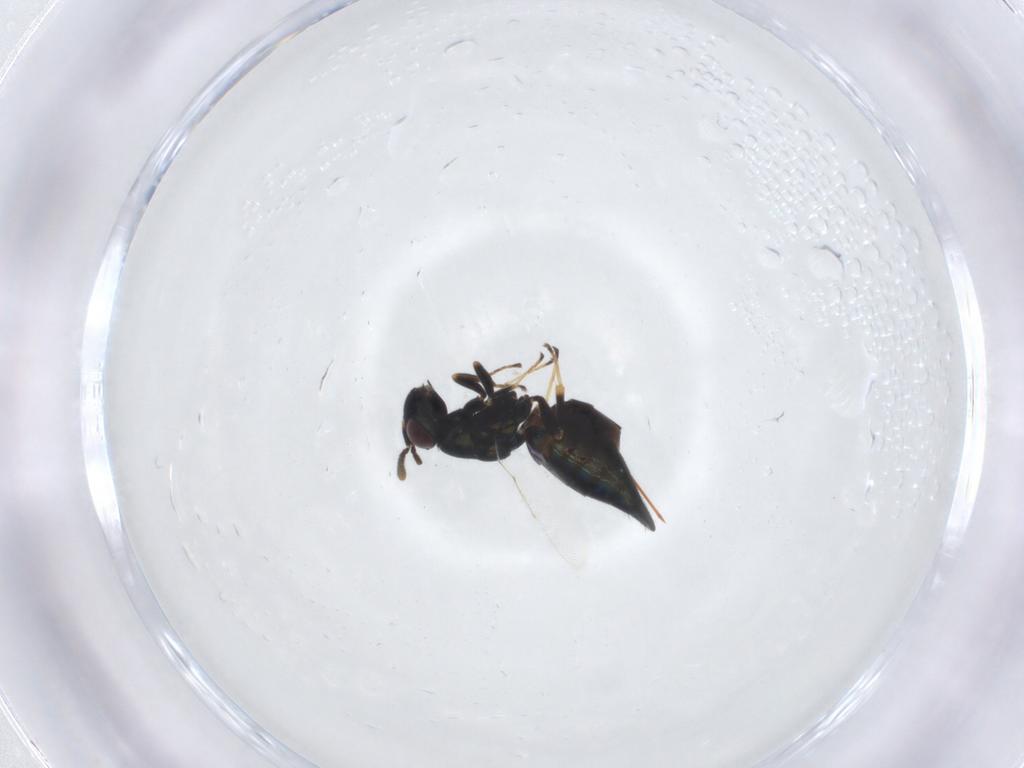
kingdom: Animalia
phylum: Arthropoda
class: Insecta
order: Hymenoptera
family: Pteromalidae
